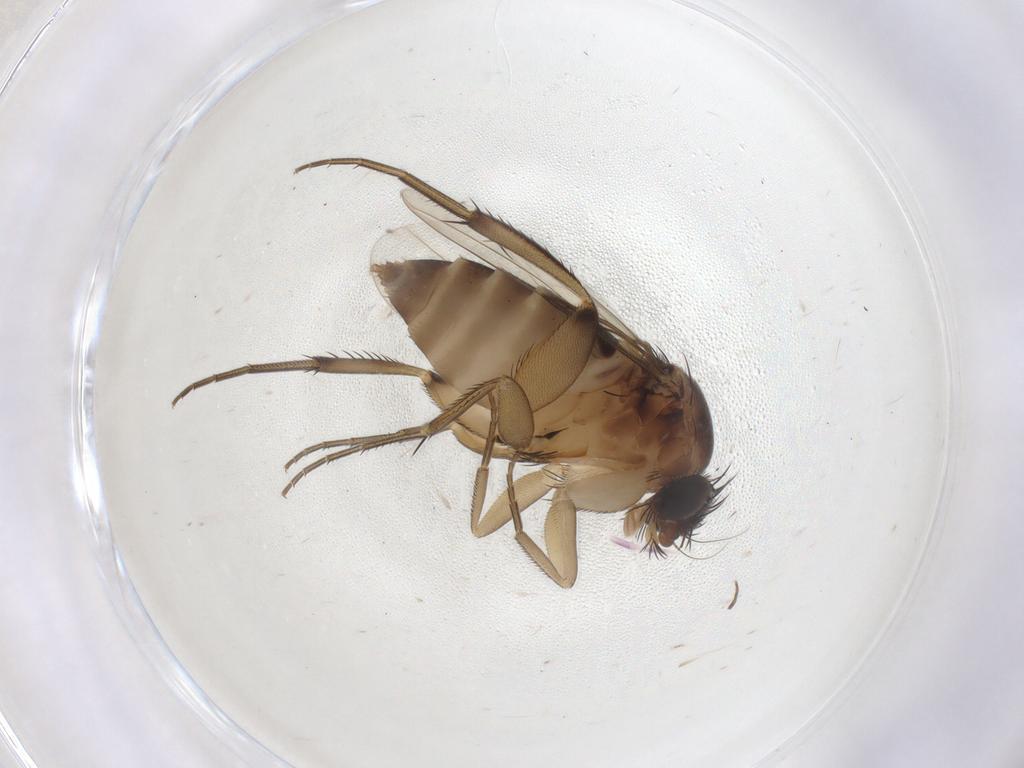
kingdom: Animalia
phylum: Arthropoda
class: Insecta
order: Diptera
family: Phoridae
